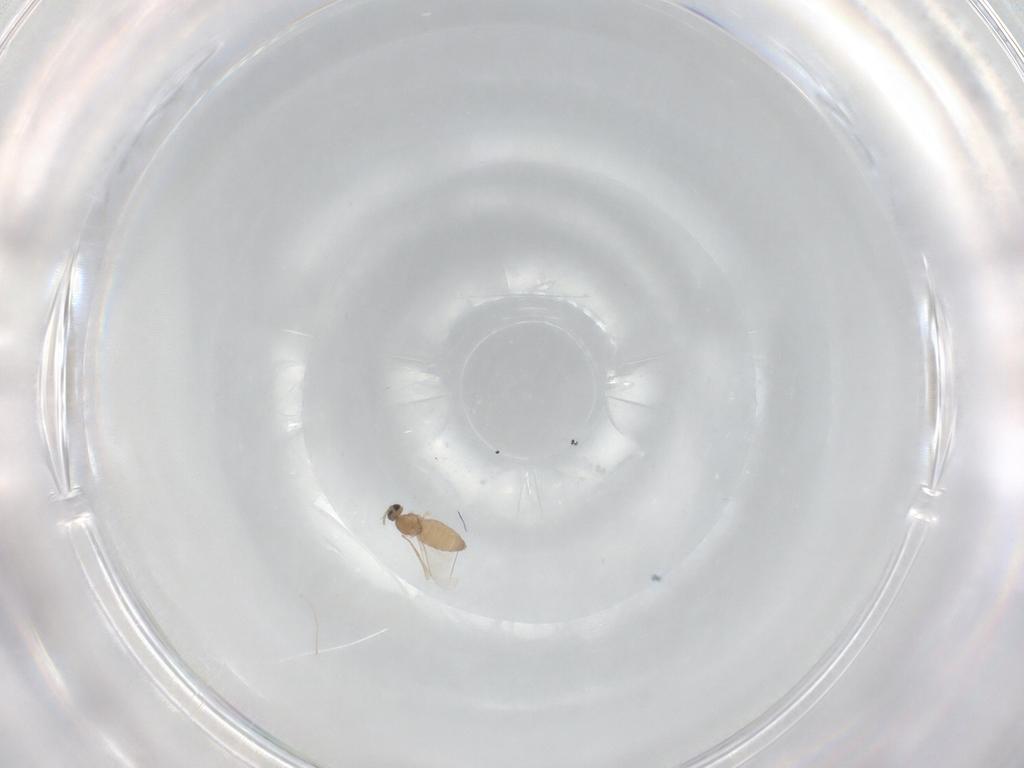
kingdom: Animalia
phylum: Arthropoda
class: Insecta
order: Diptera
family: Cecidomyiidae
